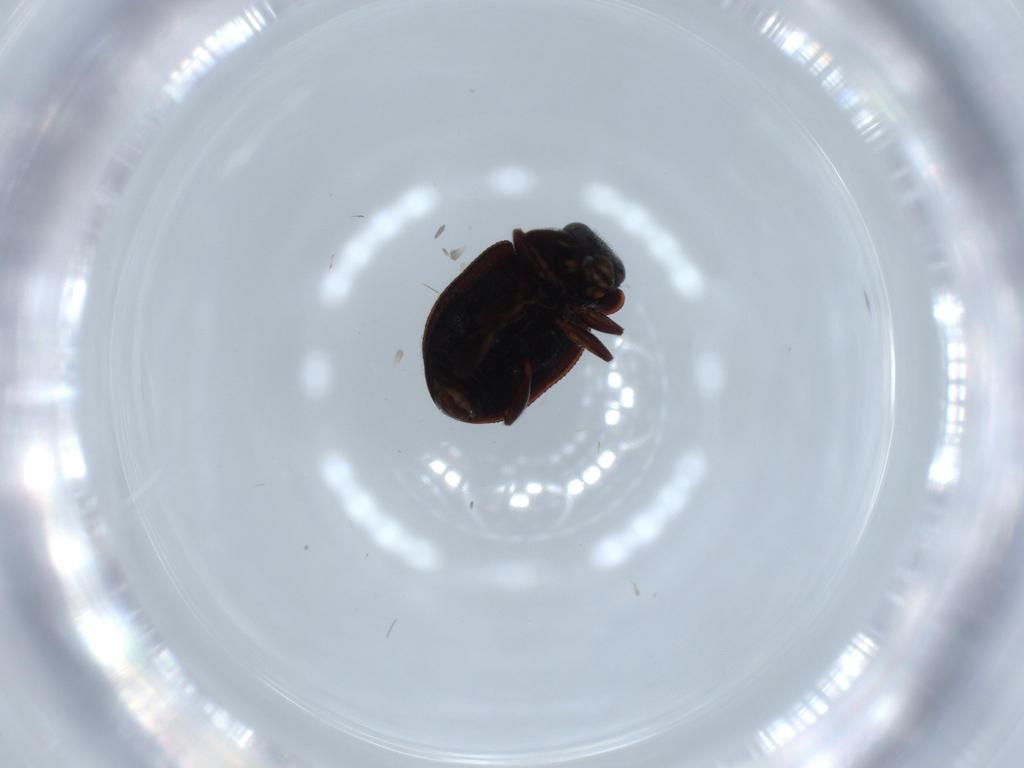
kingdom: Animalia
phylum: Arthropoda
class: Insecta
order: Coleoptera
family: Coccinellidae
